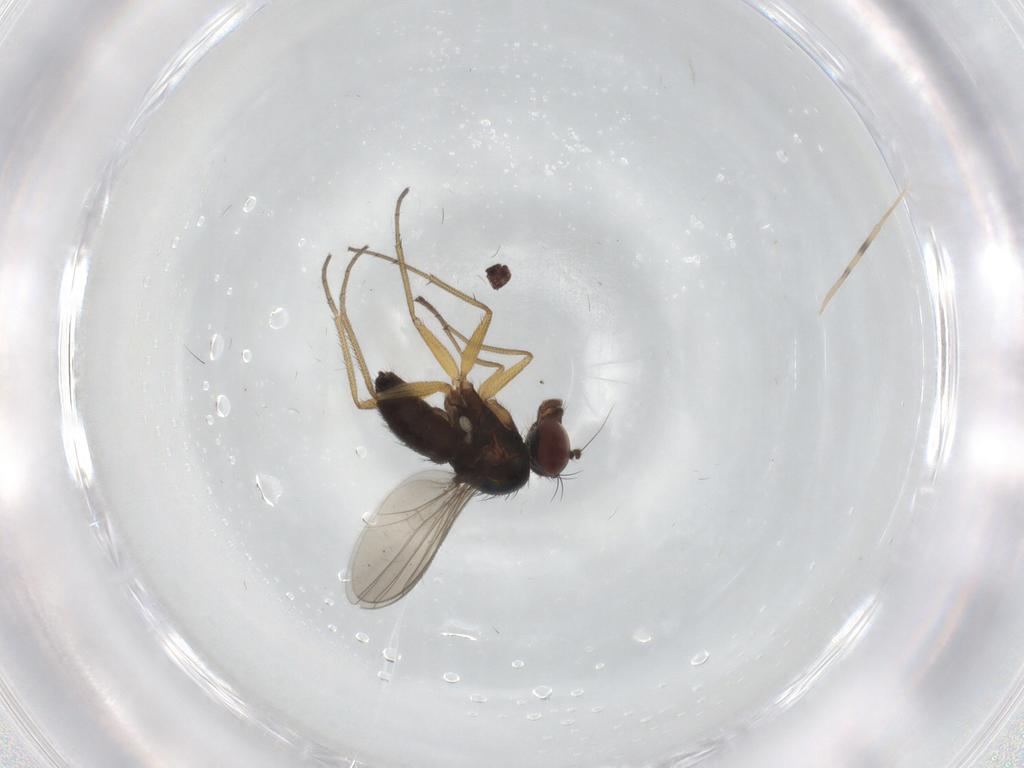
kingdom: Animalia
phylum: Arthropoda
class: Insecta
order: Diptera
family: Dolichopodidae
